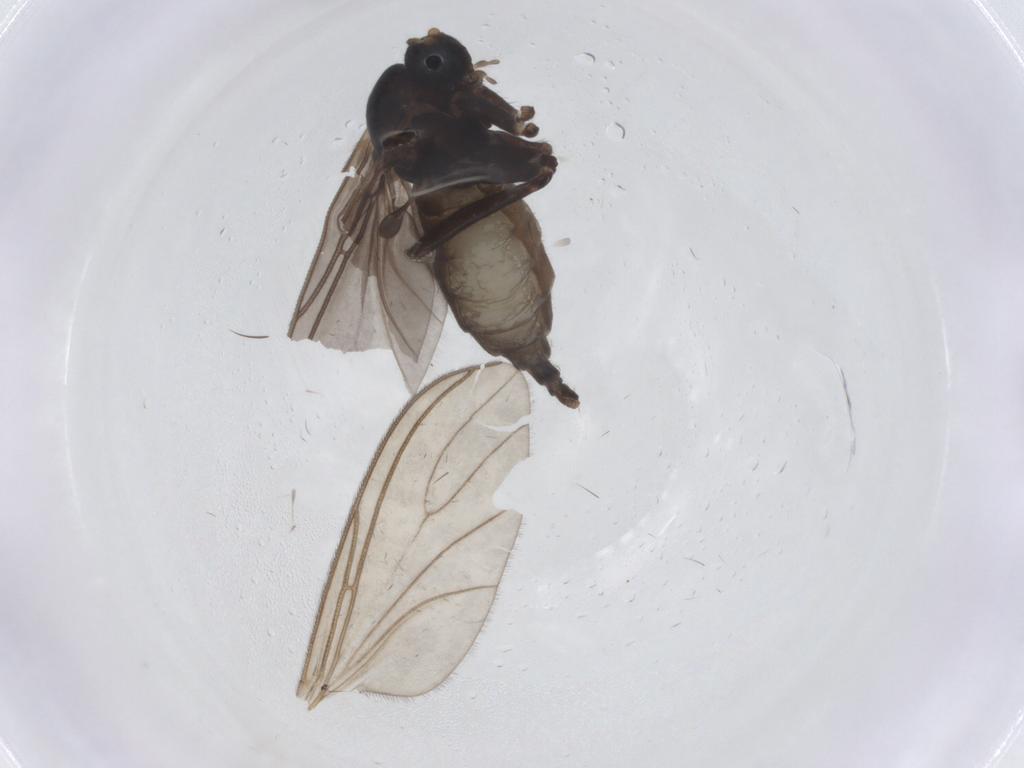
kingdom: Animalia
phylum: Arthropoda
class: Insecta
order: Diptera
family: Sciaridae
